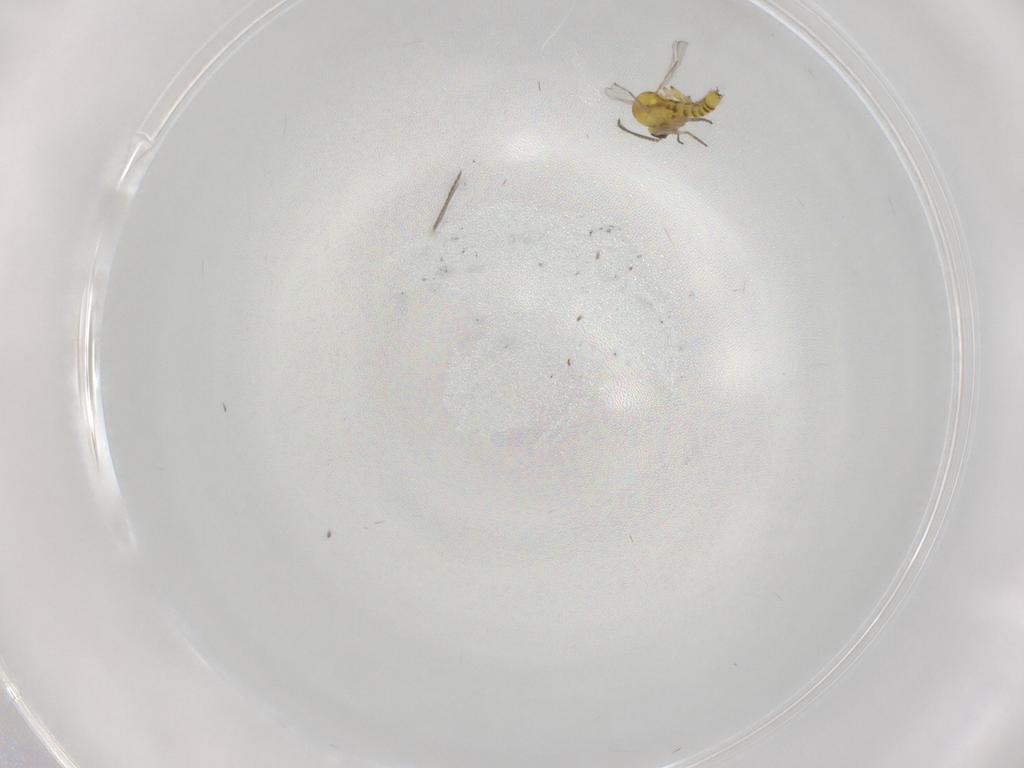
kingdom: Animalia
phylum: Arthropoda
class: Insecta
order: Diptera
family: Ceratopogonidae
